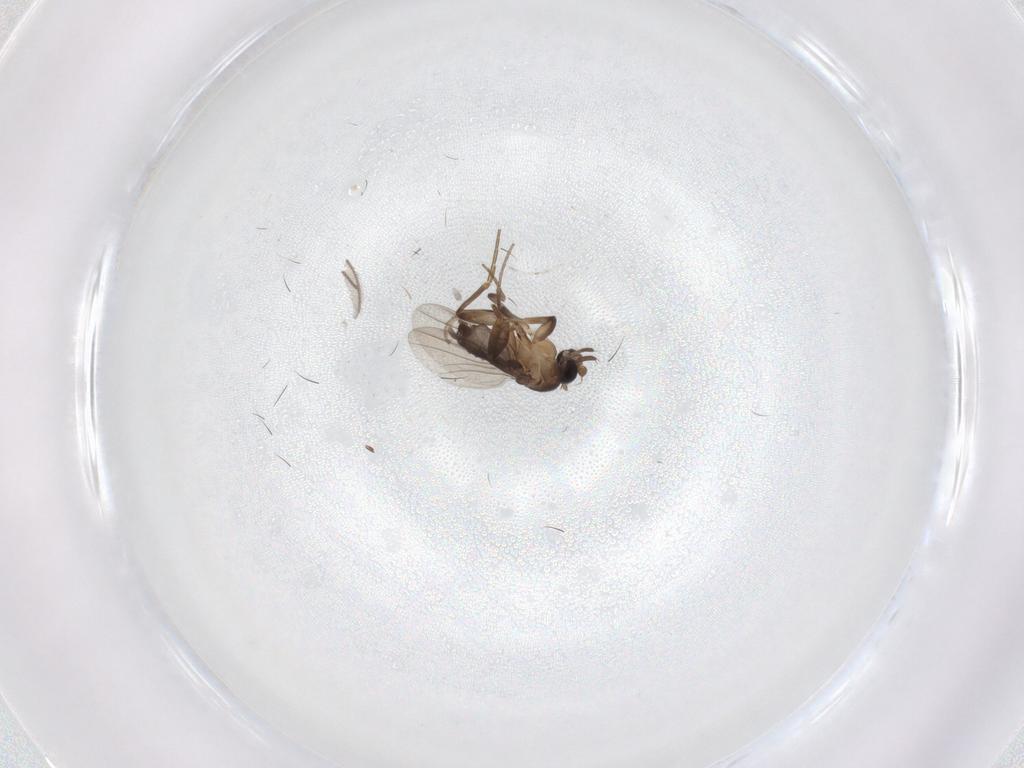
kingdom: Animalia
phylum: Arthropoda
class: Insecta
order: Diptera
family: Phoridae
